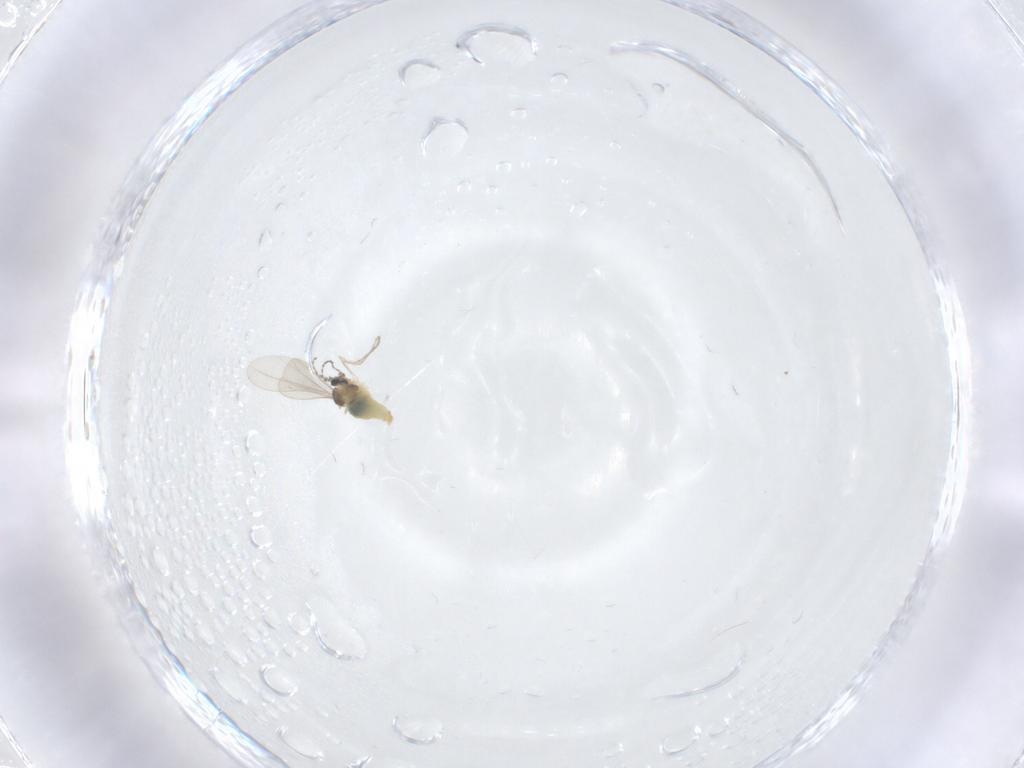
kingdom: Animalia
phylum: Arthropoda
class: Insecta
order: Diptera
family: Cecidomyiidae
